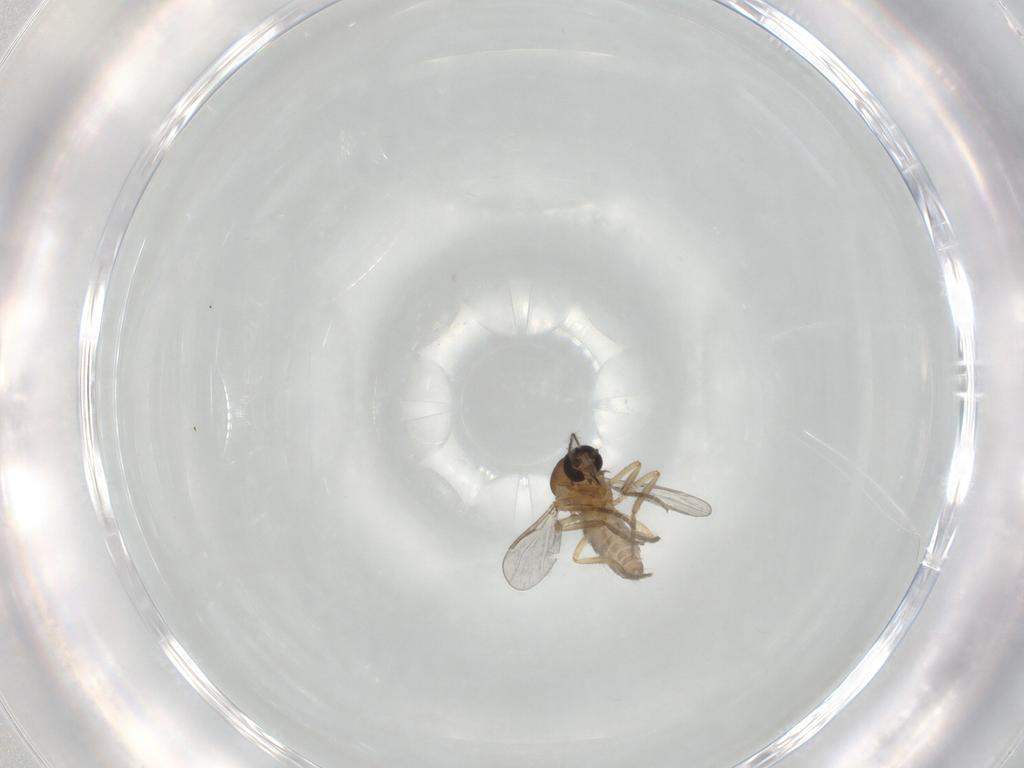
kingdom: Animalia
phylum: Arthropoda
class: Insecta
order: Diptera
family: Ceratopogonidae
